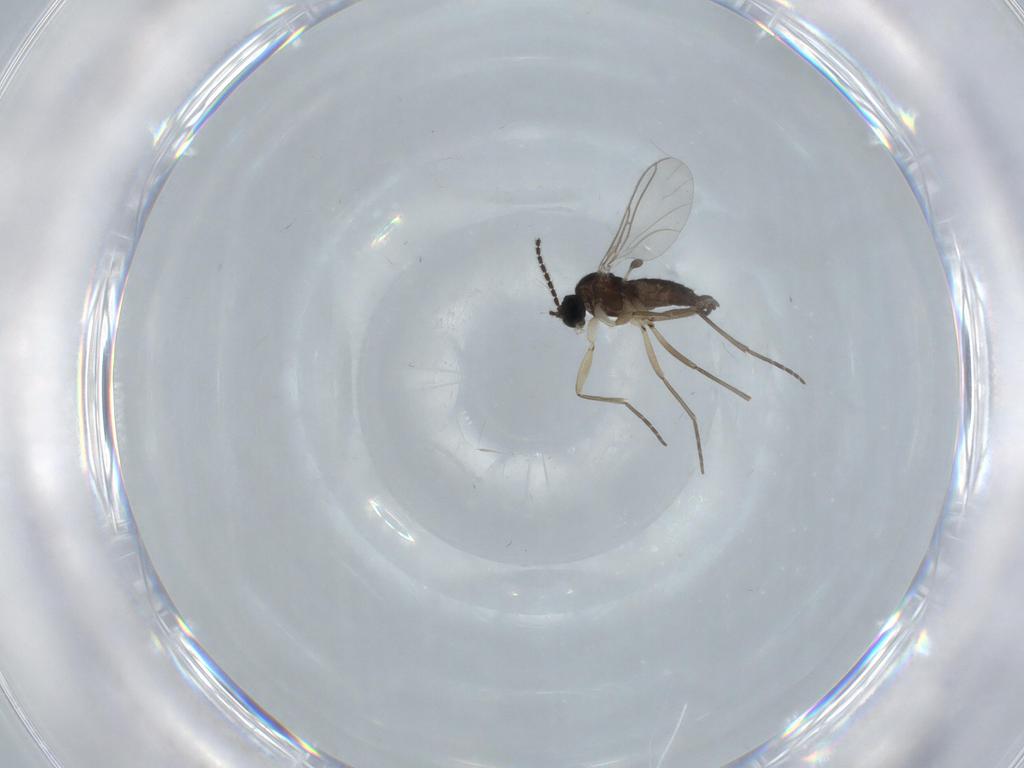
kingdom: Animalia
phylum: Arthropoda
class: Insecta
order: Diptera
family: Sciaridae
